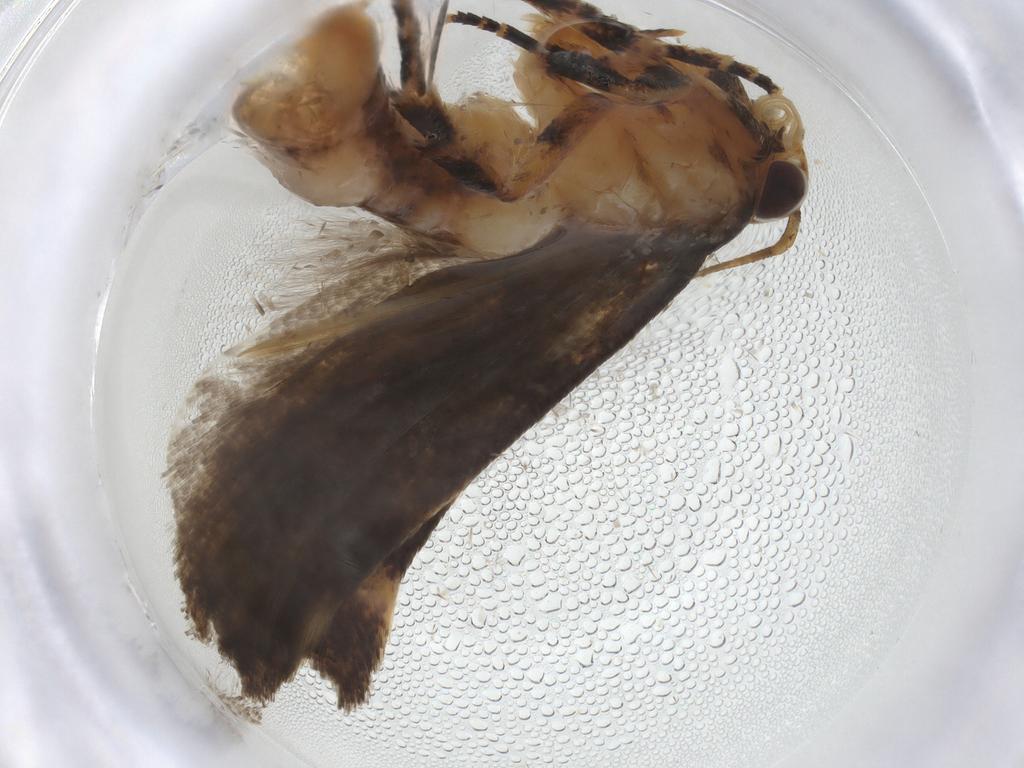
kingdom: Animalia
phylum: Arthropoda
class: Insecta
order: Lepidoptera
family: Gelechiidae
